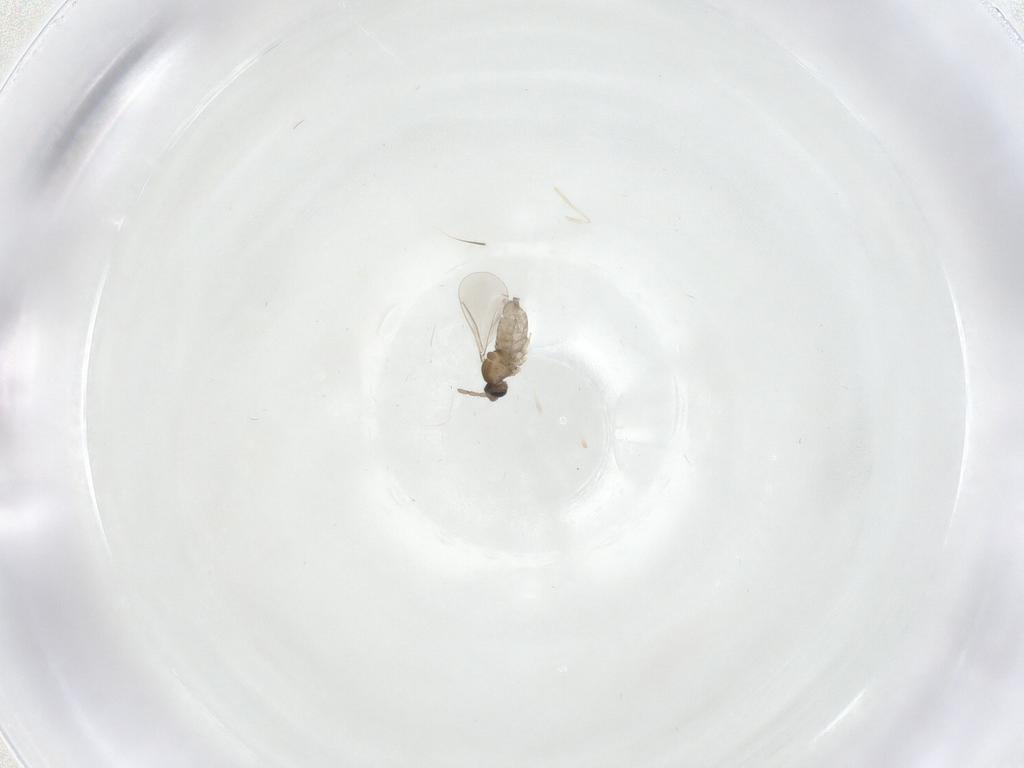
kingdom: Animalia
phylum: Arthropoda
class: Insecta
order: Diptera
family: Cecidomyiidae
